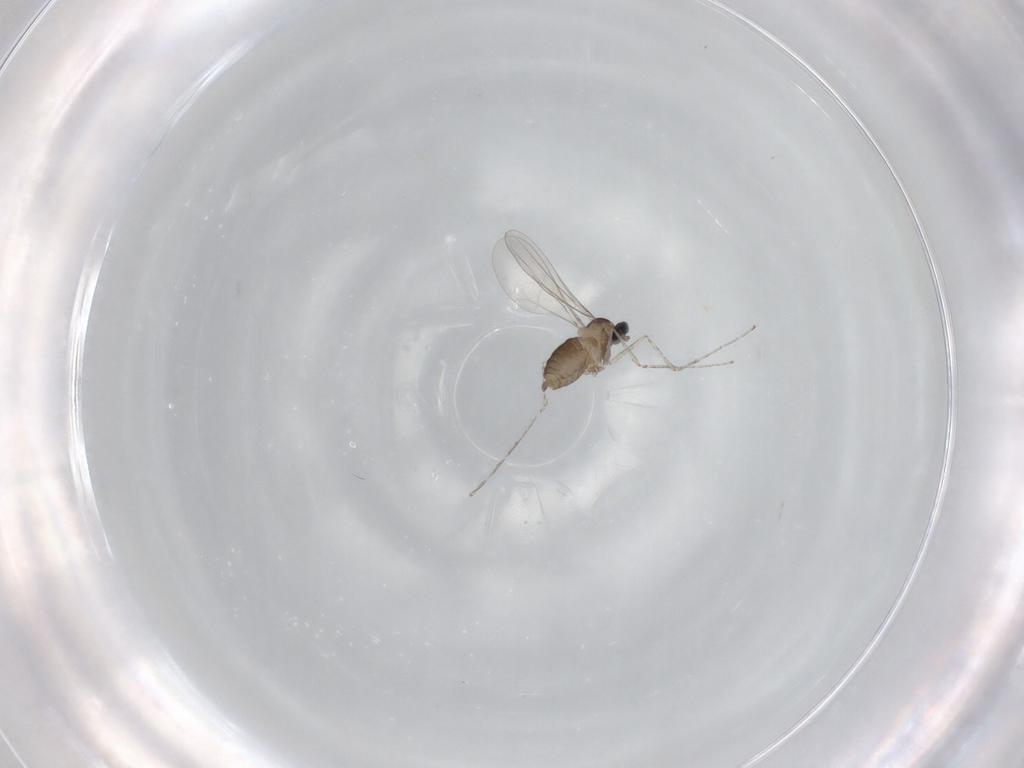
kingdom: Animalia
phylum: Arthropoda
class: Insecta
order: Diptera
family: Cecidomyiidae
